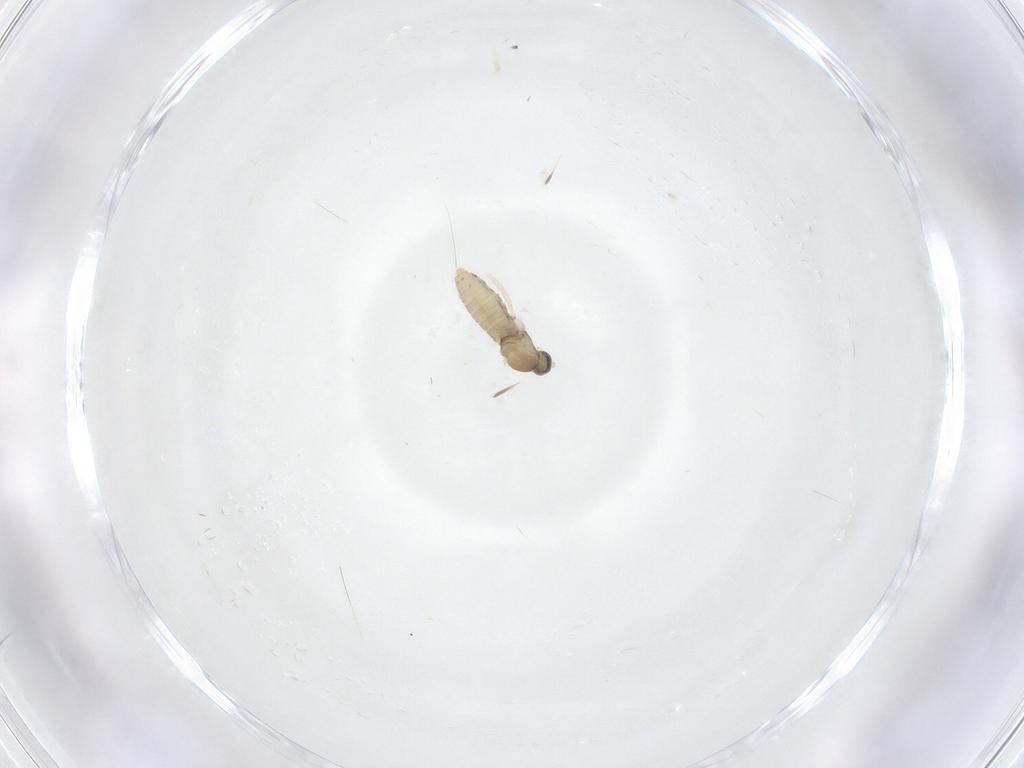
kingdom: Animalia
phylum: Arthropoda
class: Insecta
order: Diptera
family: Cecidomyiidae
